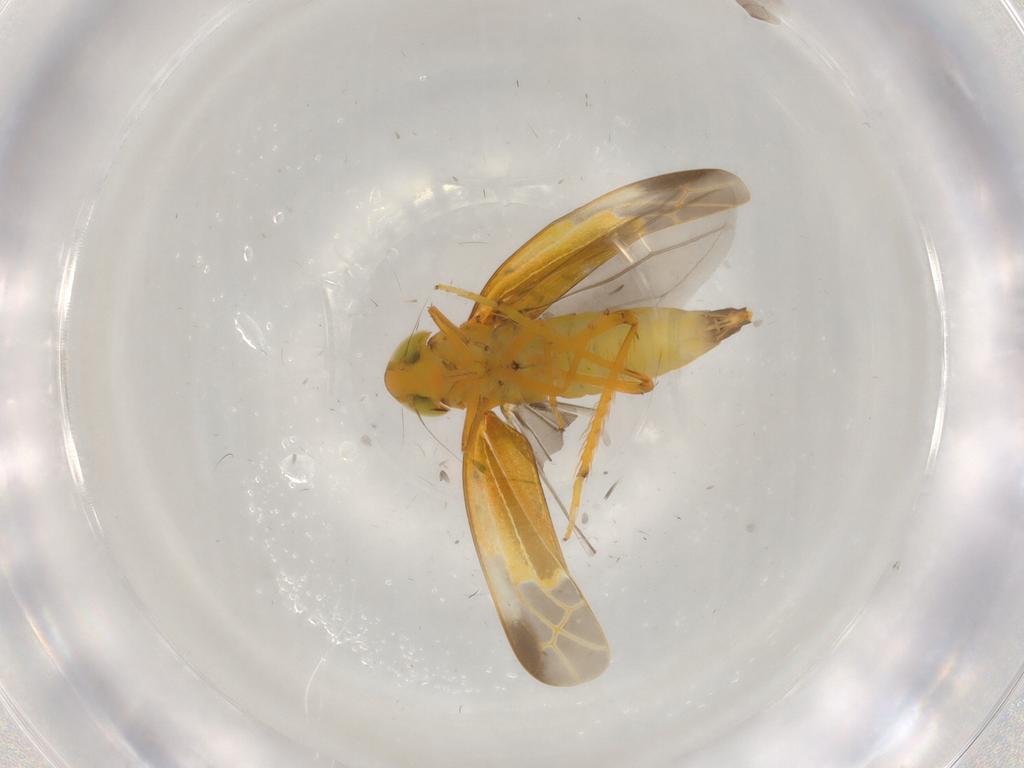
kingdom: Animalia
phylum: Arthropoda
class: Insecta
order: Hemiptera
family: Cicadellidae
